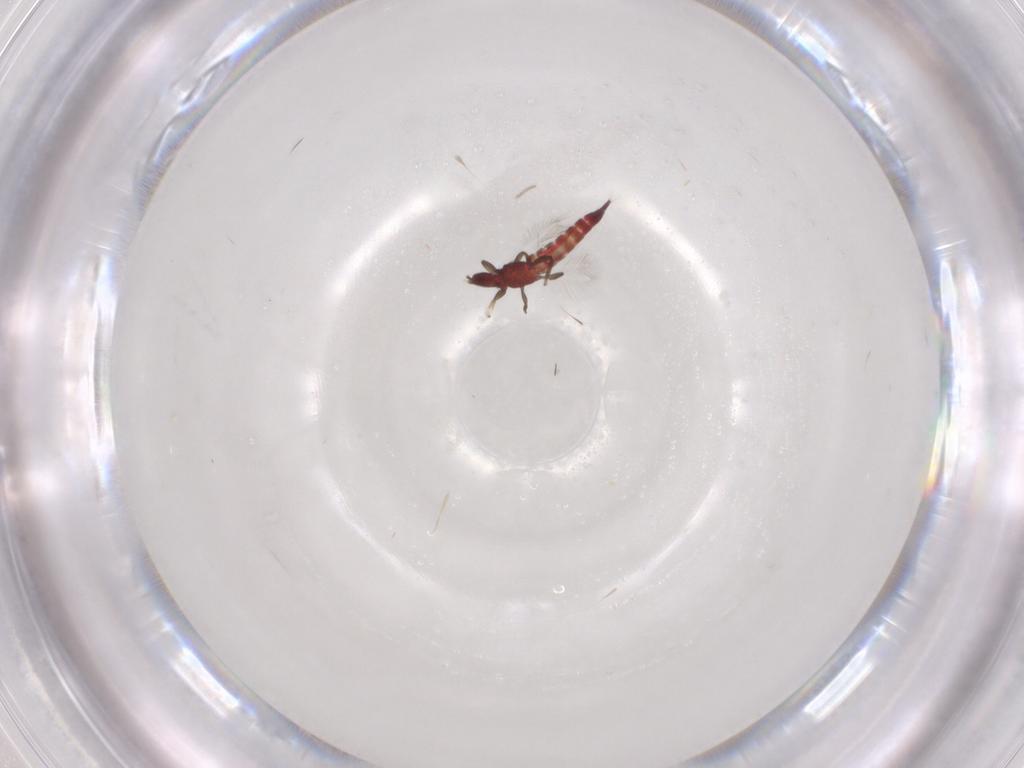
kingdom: Animalia
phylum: Arthropoda
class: Insecta
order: Thysanoptera
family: Phlaeothripidae
